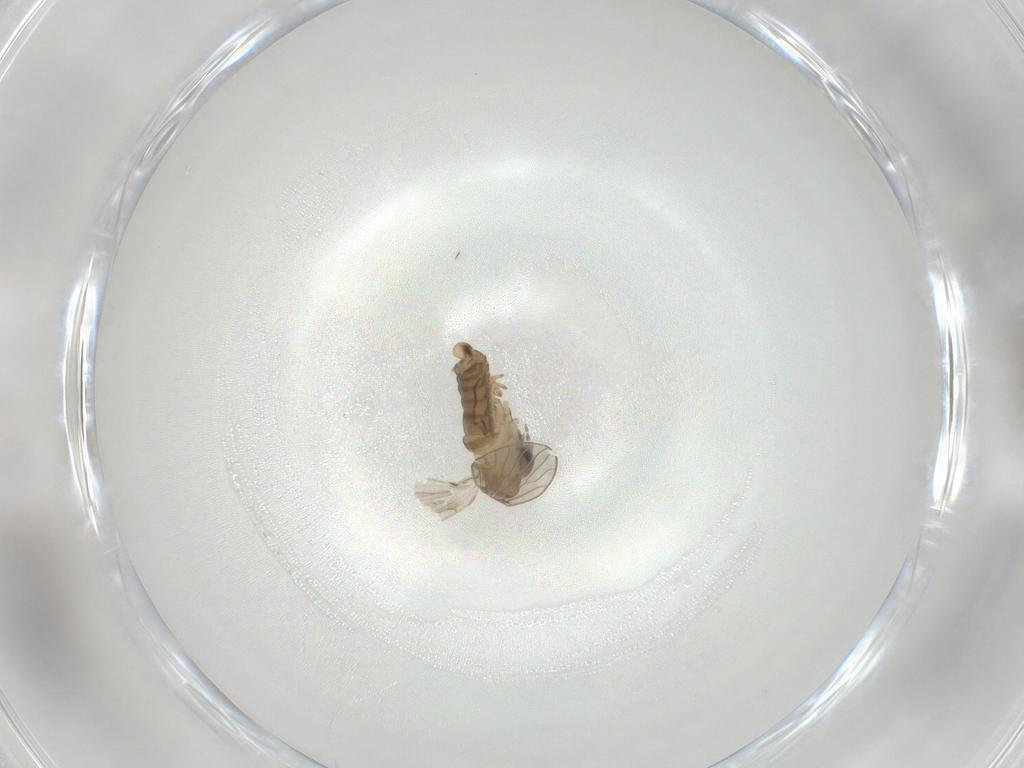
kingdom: Animalia
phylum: Arthropoda
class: Insecta
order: Diptera
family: Psychodidae
